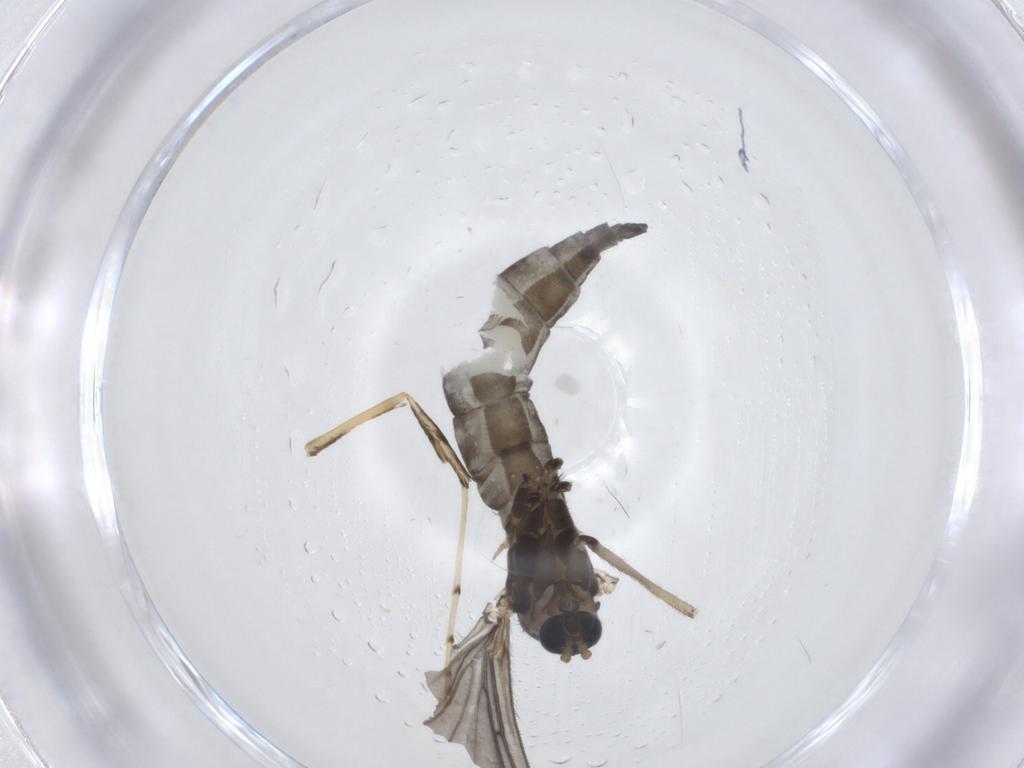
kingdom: Animalia
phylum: Arthropoda
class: Insecta
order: Diptera
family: Sciaridae
